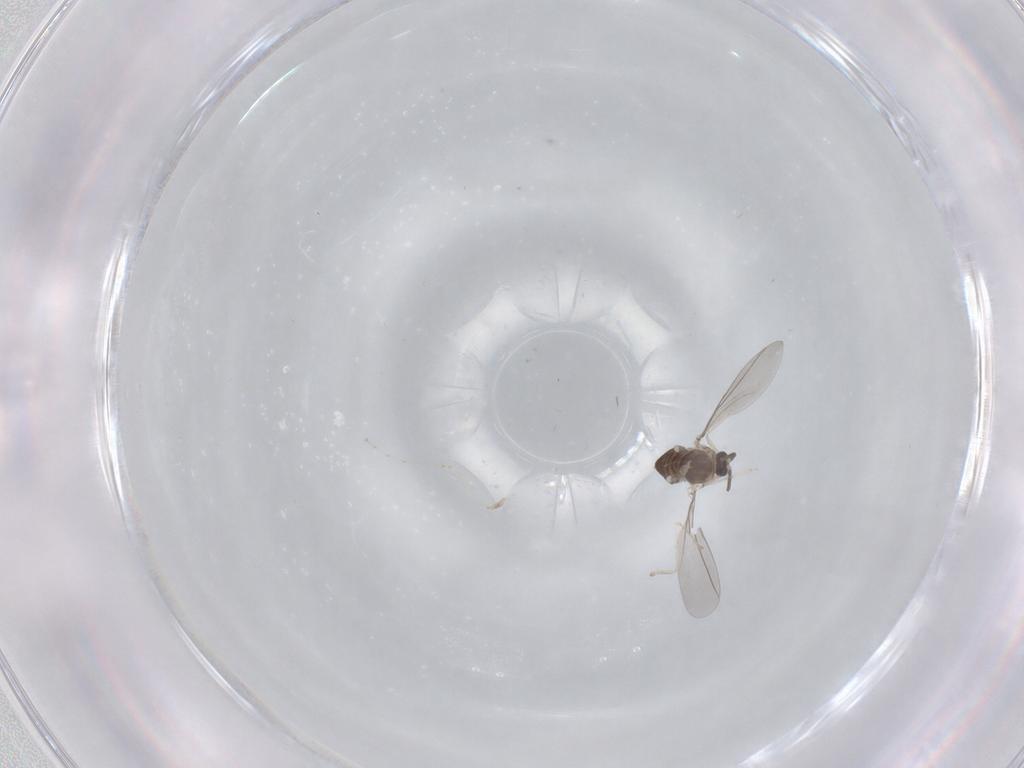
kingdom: Animalia
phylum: Arthropoda
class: Insecta
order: Diptera
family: Cecidomyiidae
